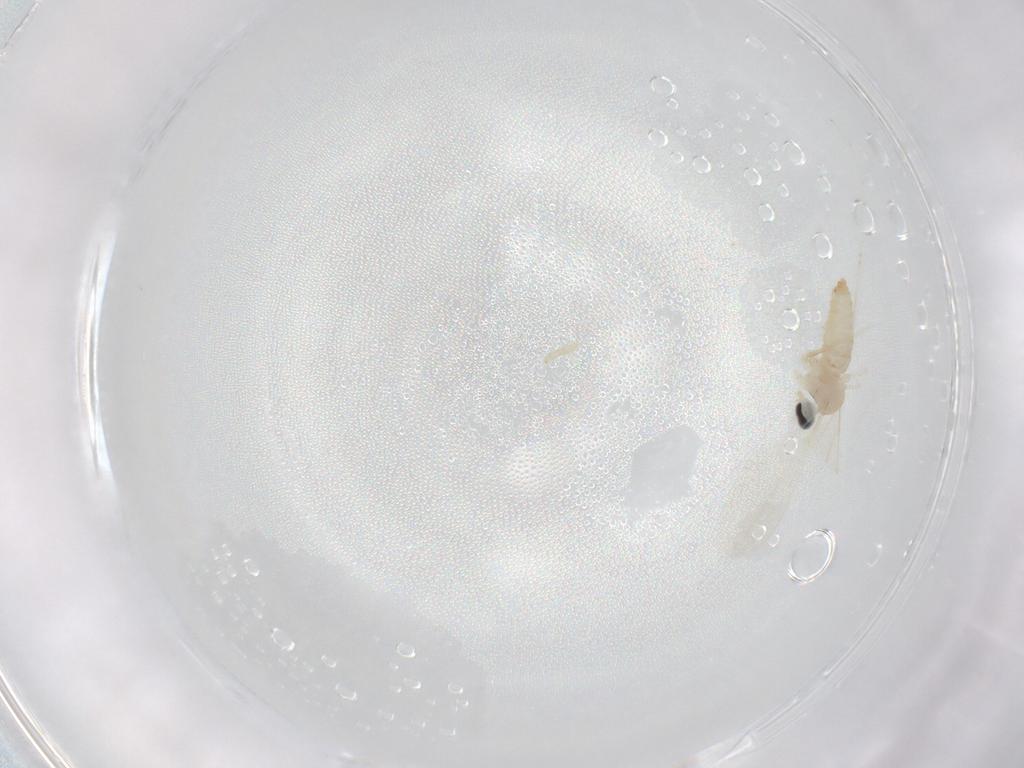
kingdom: Animalia
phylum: Arthropoda
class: Insecta
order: Diptera
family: Cecidomyiidae
